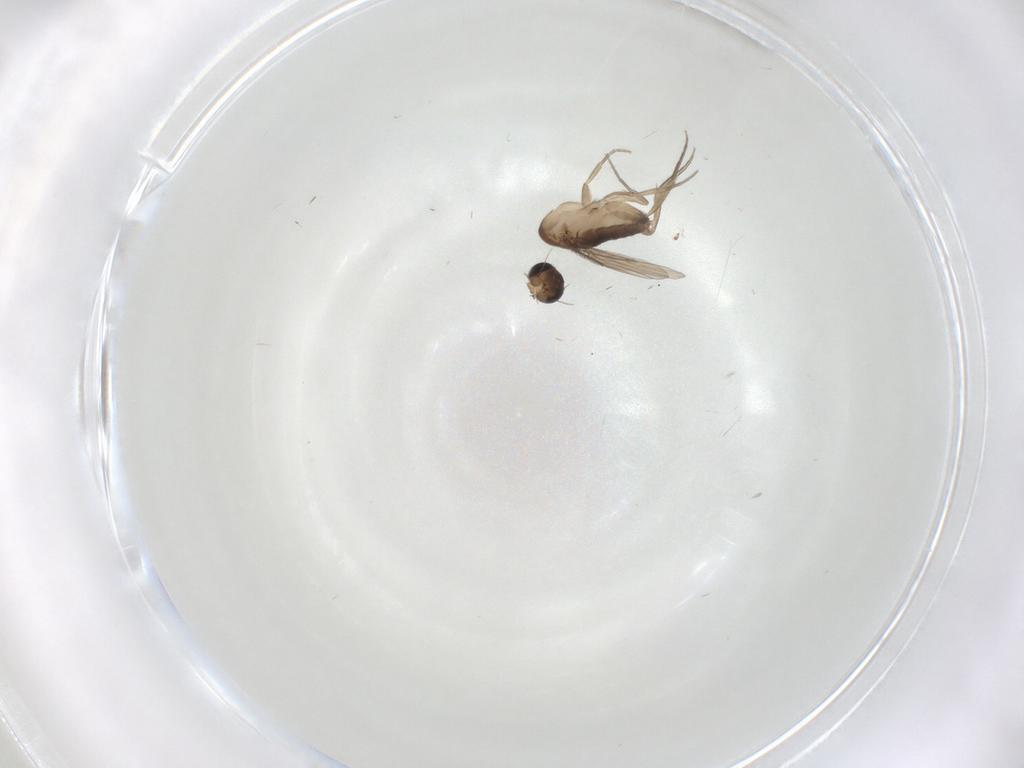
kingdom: Animalia
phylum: Arthropoda
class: Insecta
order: Diptera
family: Phoridae
